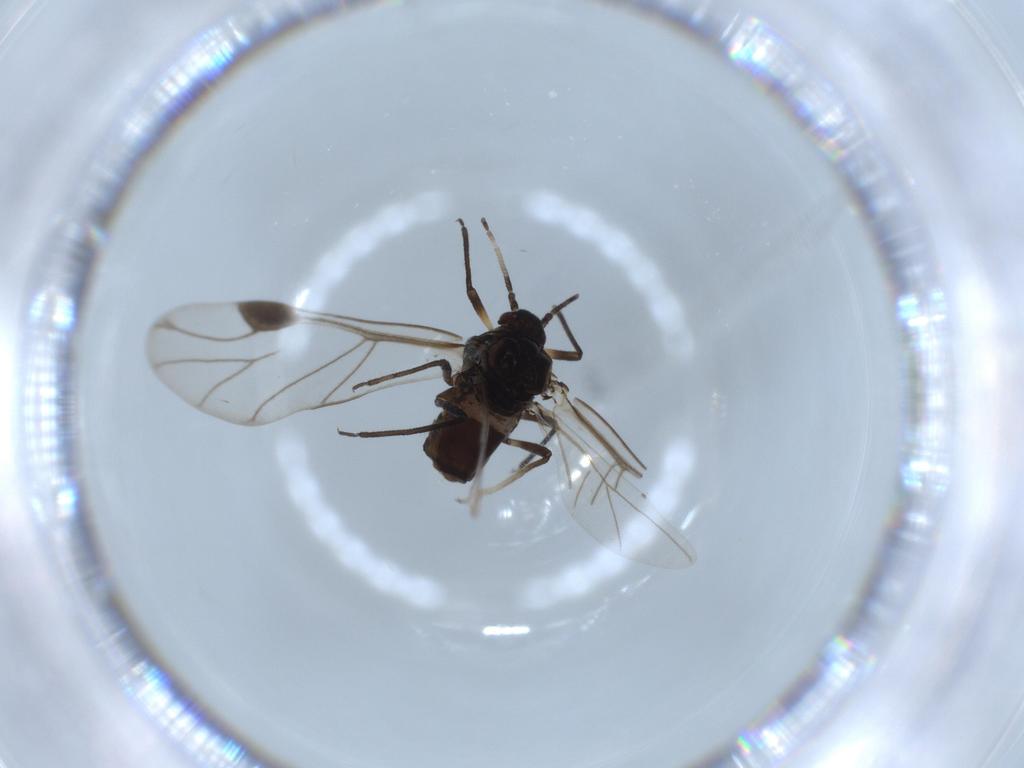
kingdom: Animalia
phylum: Arthropoda
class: Insecta
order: Hemiptera
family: Aphididae
